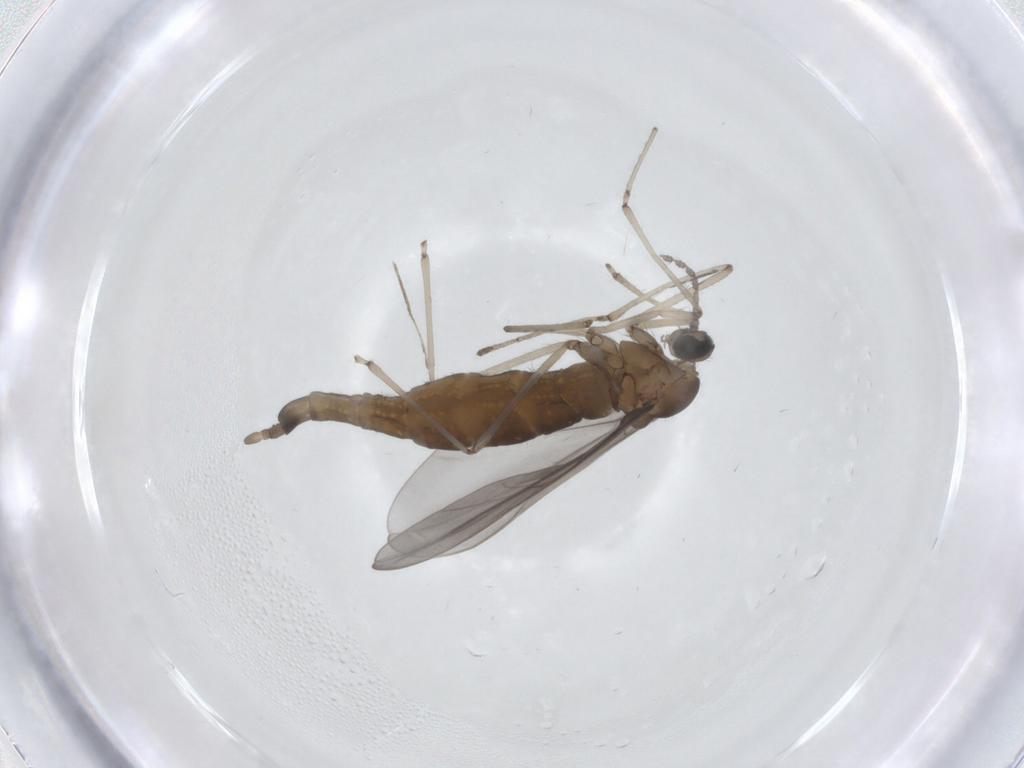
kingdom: Animalia
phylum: Arthropoda
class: Insecta
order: Diptera
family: Cecidomyiidae
